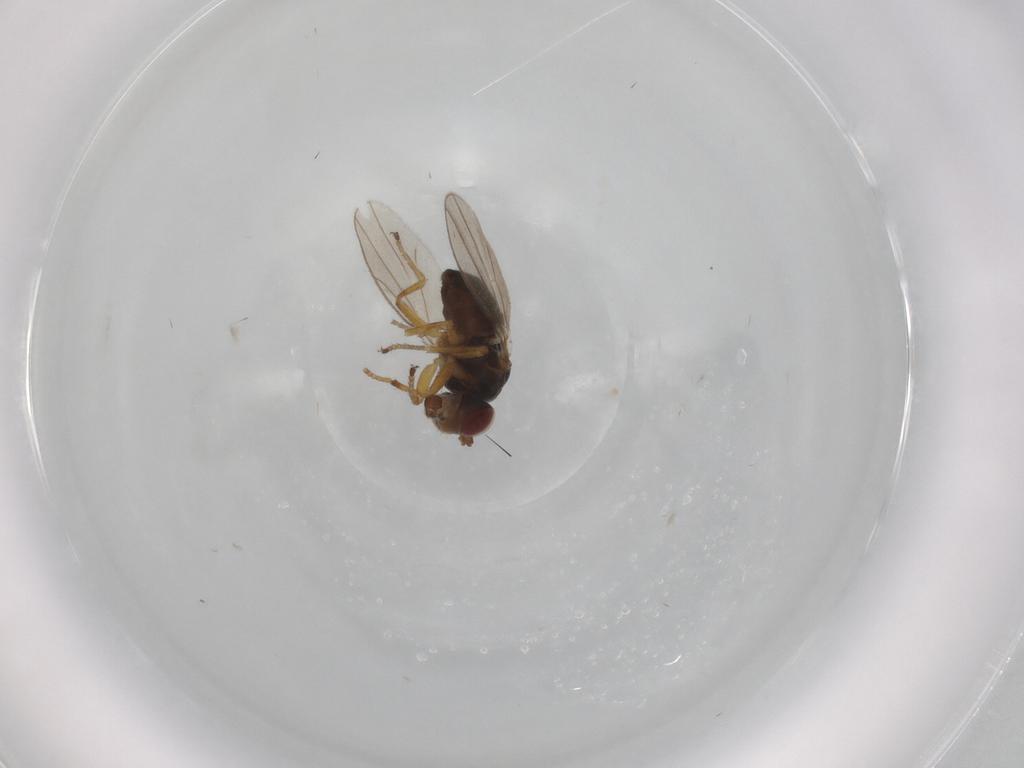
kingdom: Animalia
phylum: Arthropoda
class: Insecta
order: Diptera
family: Ephydridae
